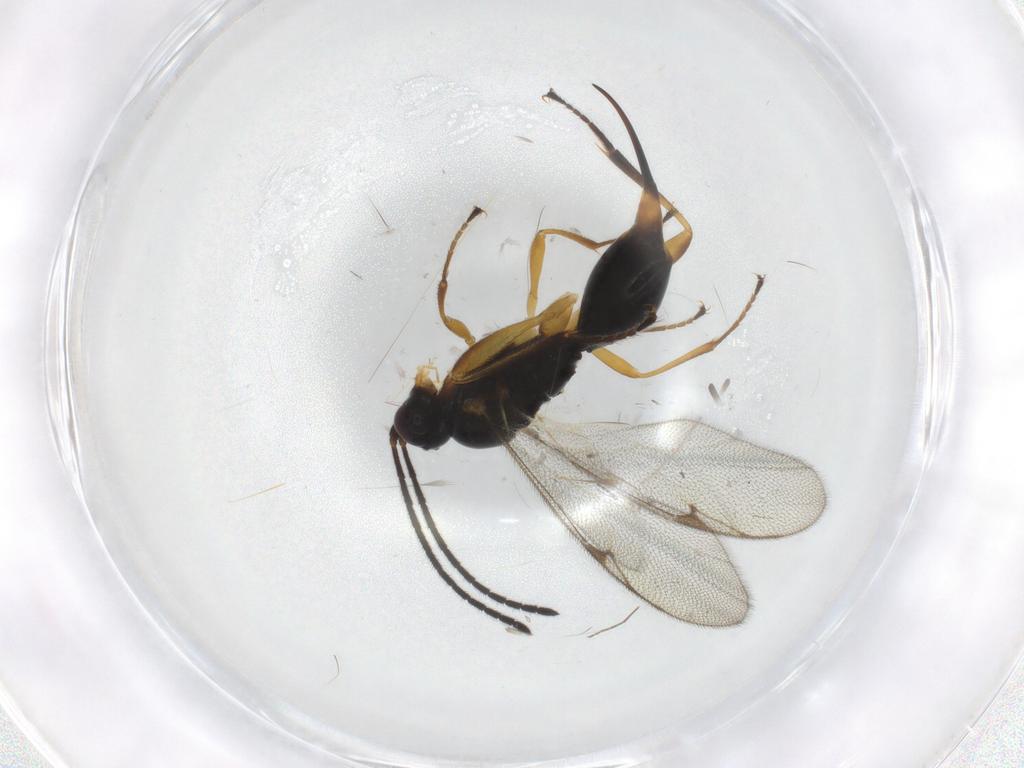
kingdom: Animalia
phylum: Arthropoda
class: Insecta
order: Hymenoptera
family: Proctotrupidae
